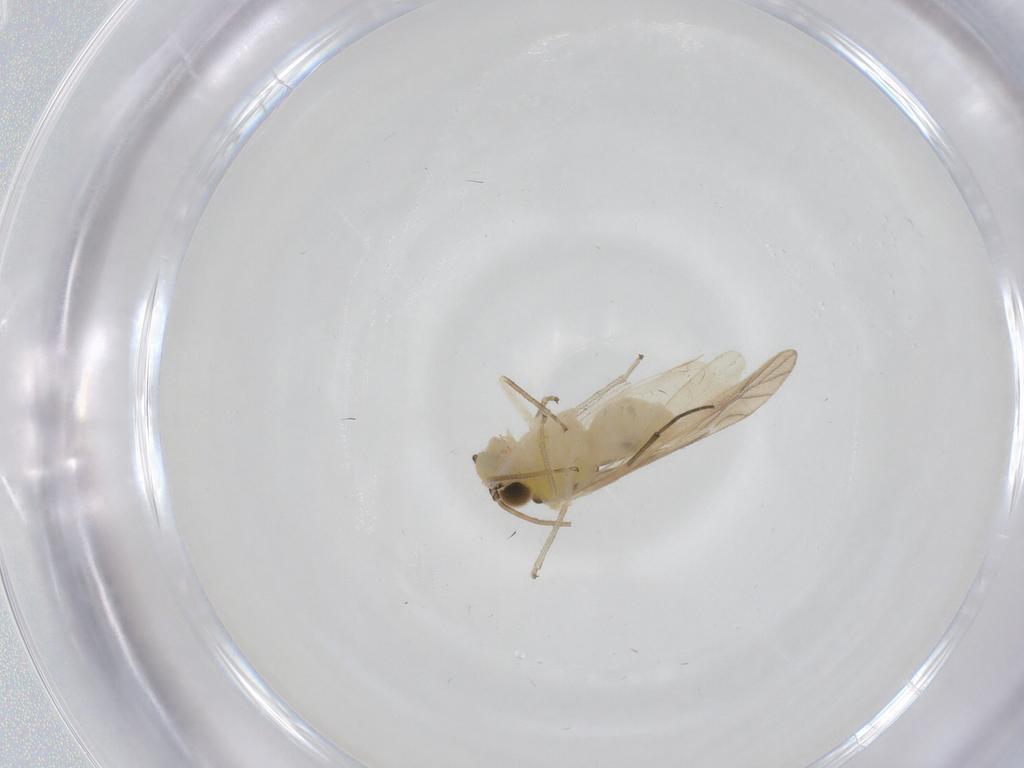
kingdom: Animalia
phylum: Arthropoda
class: Insecta
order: Psocodea
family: Caeciliusidae
